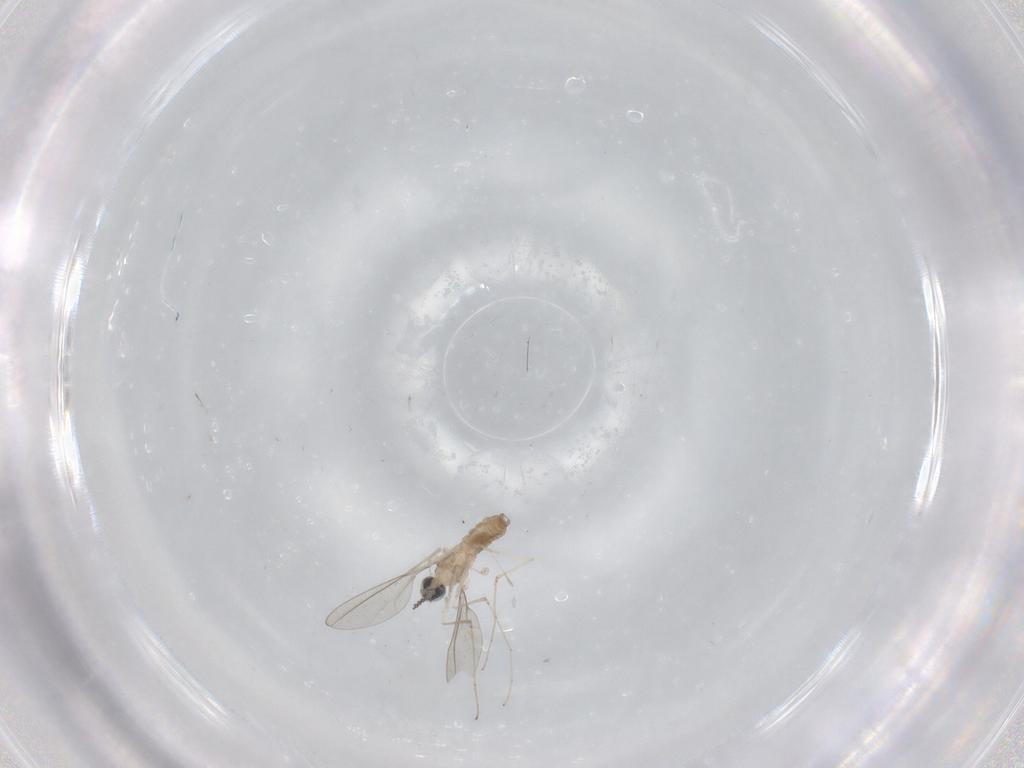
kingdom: Animalia
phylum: Arthropoda
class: Insecta
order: Diptera
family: Cecidomyiidae
